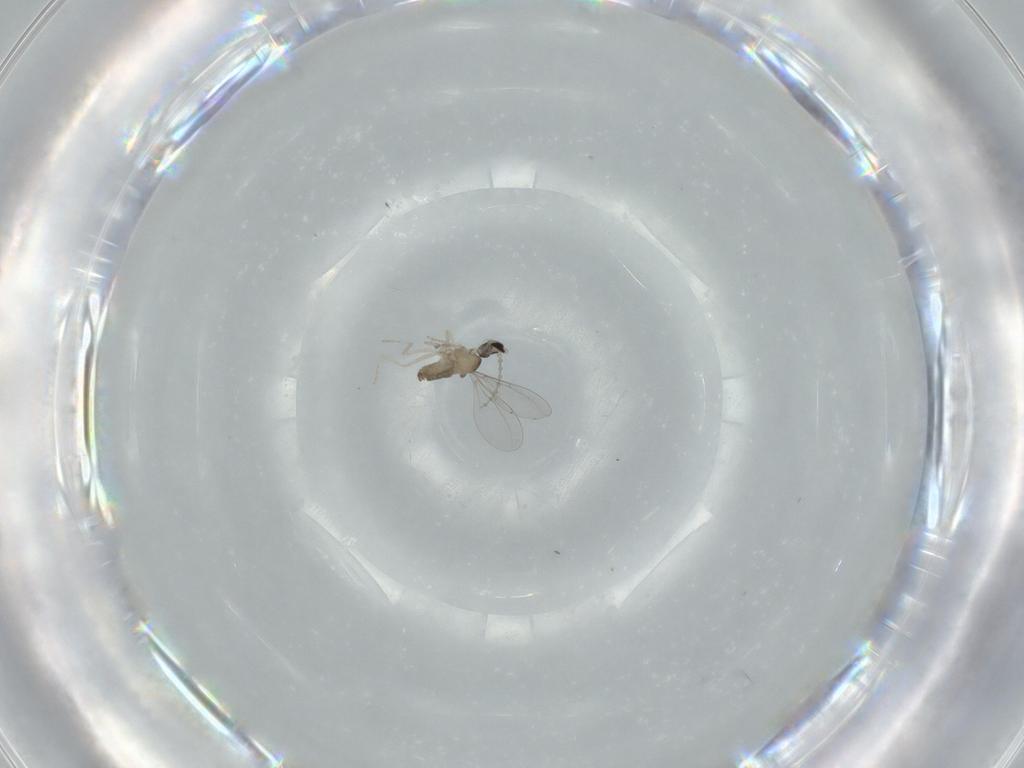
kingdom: Animalia
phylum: Arthropoda
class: Insecta
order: Diptera
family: Cecidomyiidae
